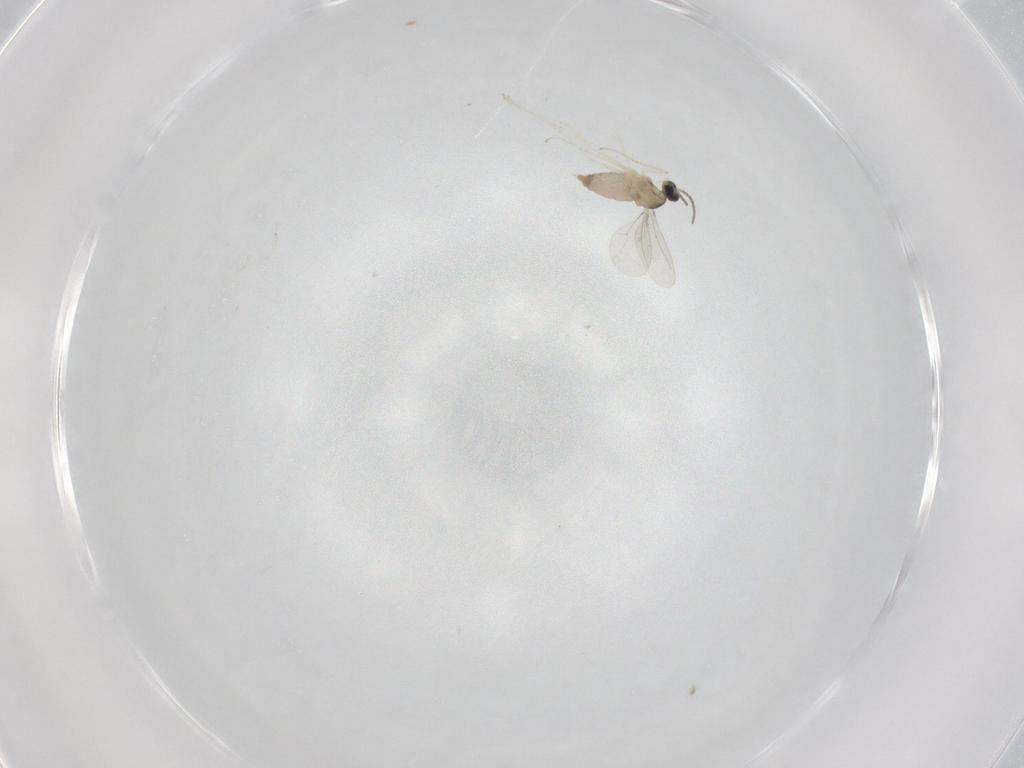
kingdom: Animalia
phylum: Arthropoda
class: Insecta
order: Diptera
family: Cecidomyiidae
